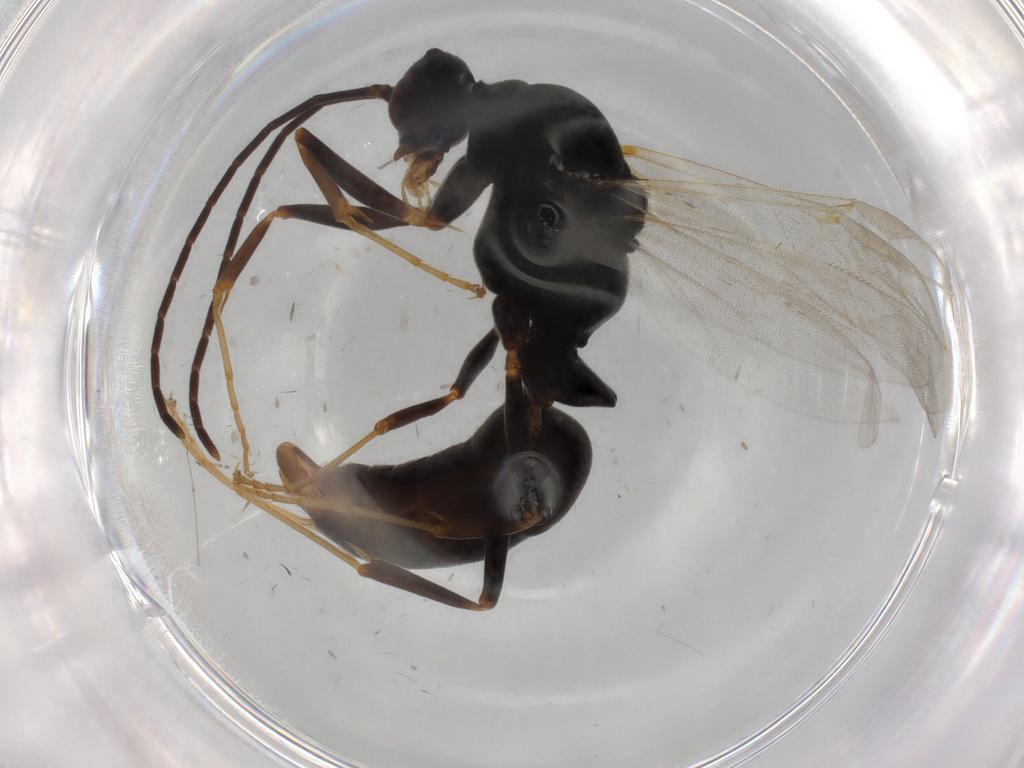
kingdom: Animalia
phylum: Arthropoda
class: Insecta
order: Hymenoptera
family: Formicidae
